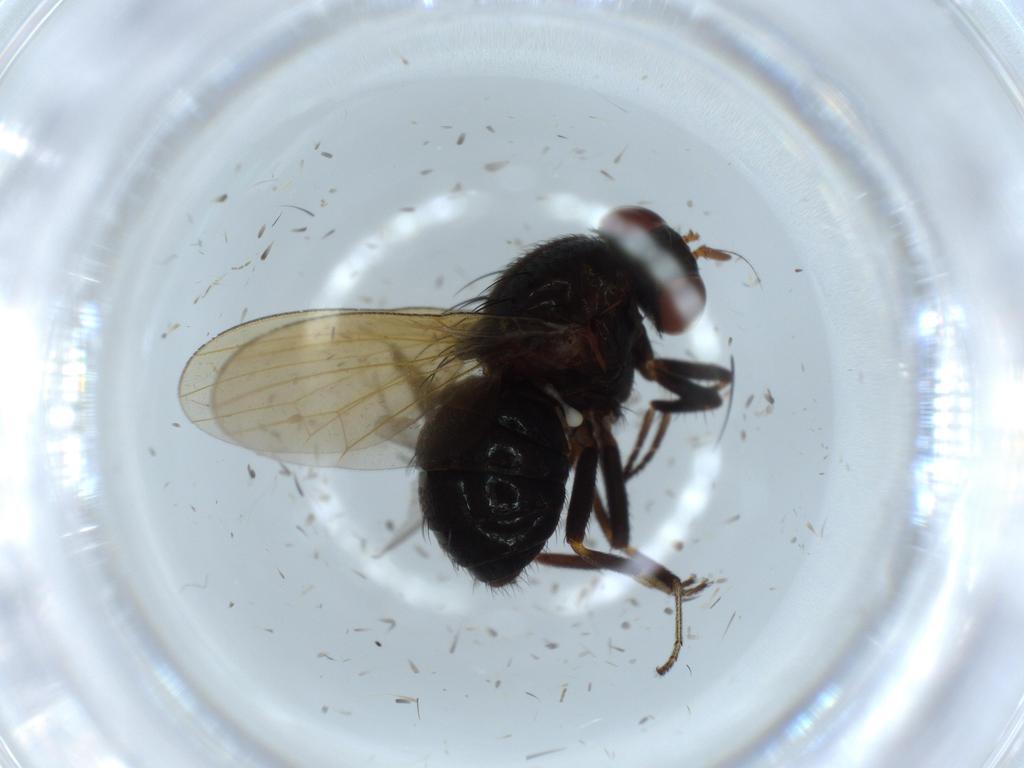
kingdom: Animalia
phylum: Arthropoda
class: Insecta
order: Diptera
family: Lauxaniidae
